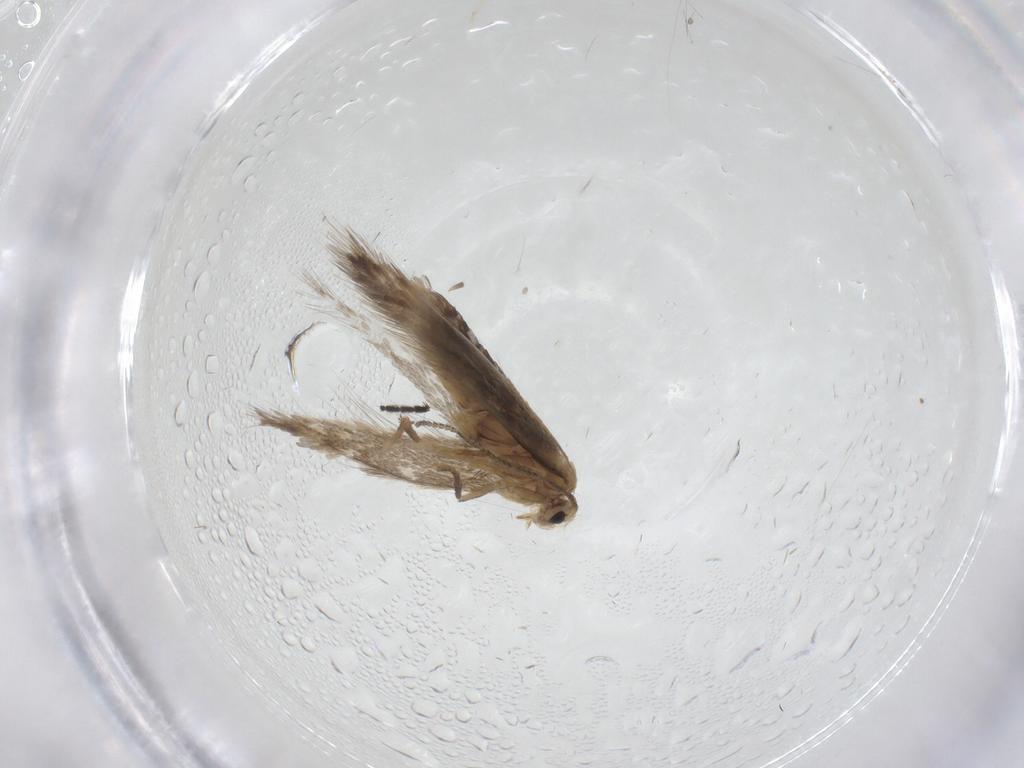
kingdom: Animalia
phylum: Arthropoda
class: Insecta
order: Lepidoptera
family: Nepticulidae
